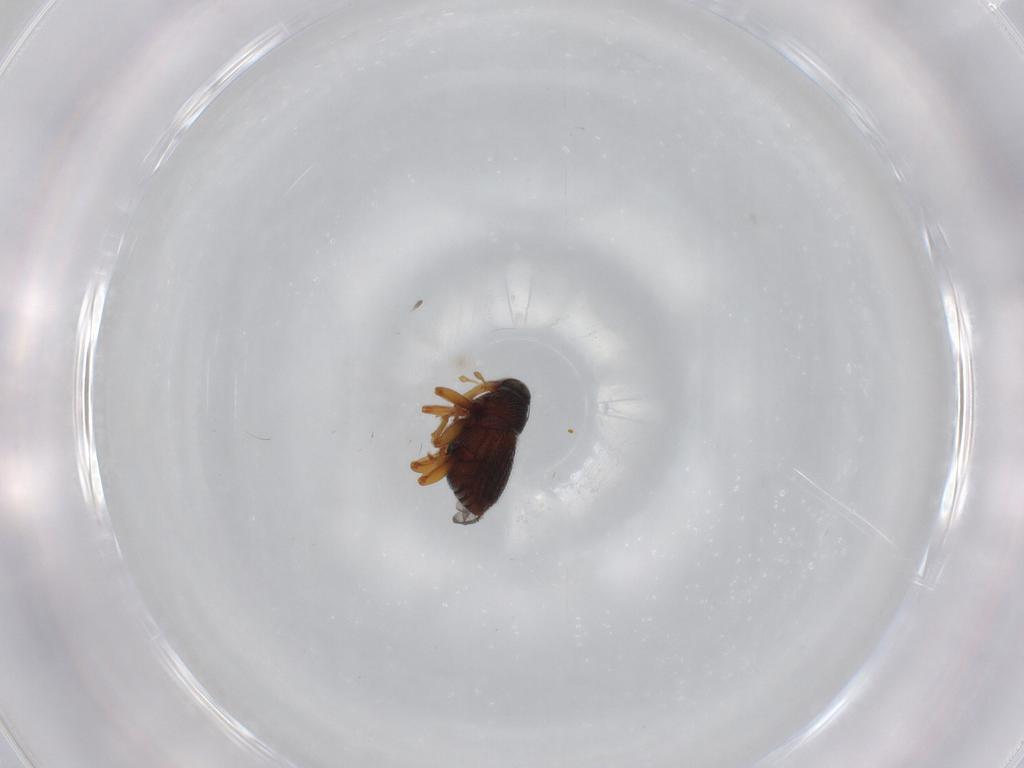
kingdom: Animalia
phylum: Arthropoda
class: Insecta
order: Coleoptera
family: Curculionidae
